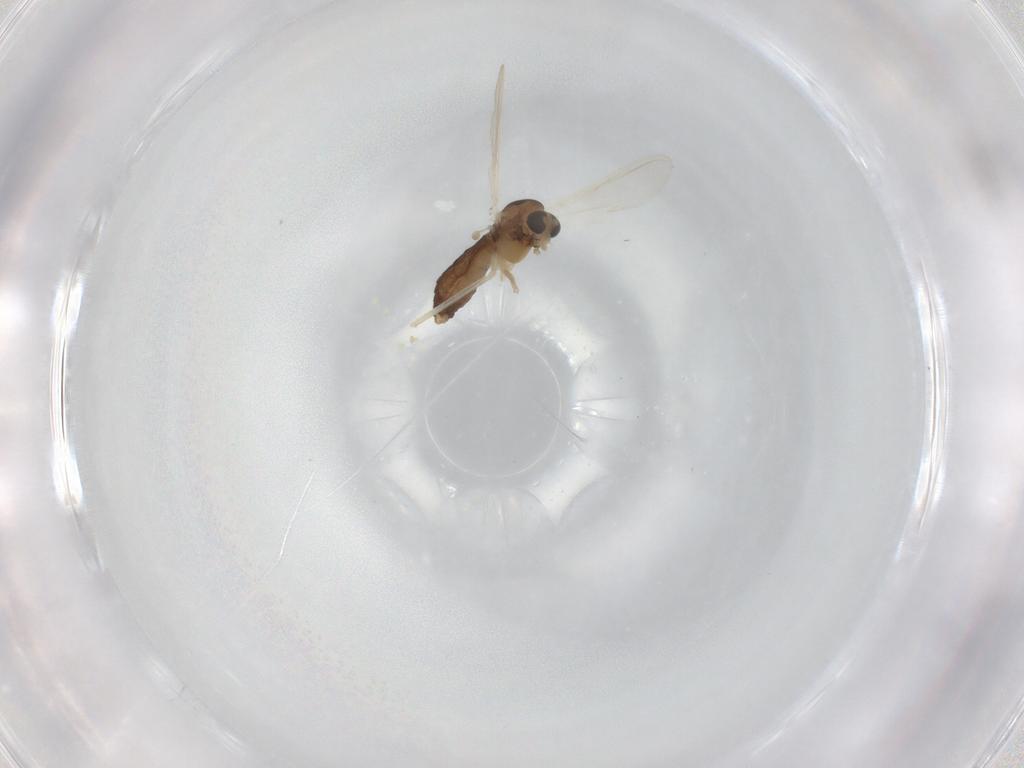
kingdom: Animalia
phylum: Arthropoda
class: Insecta
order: Diptera
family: Chironomidae
